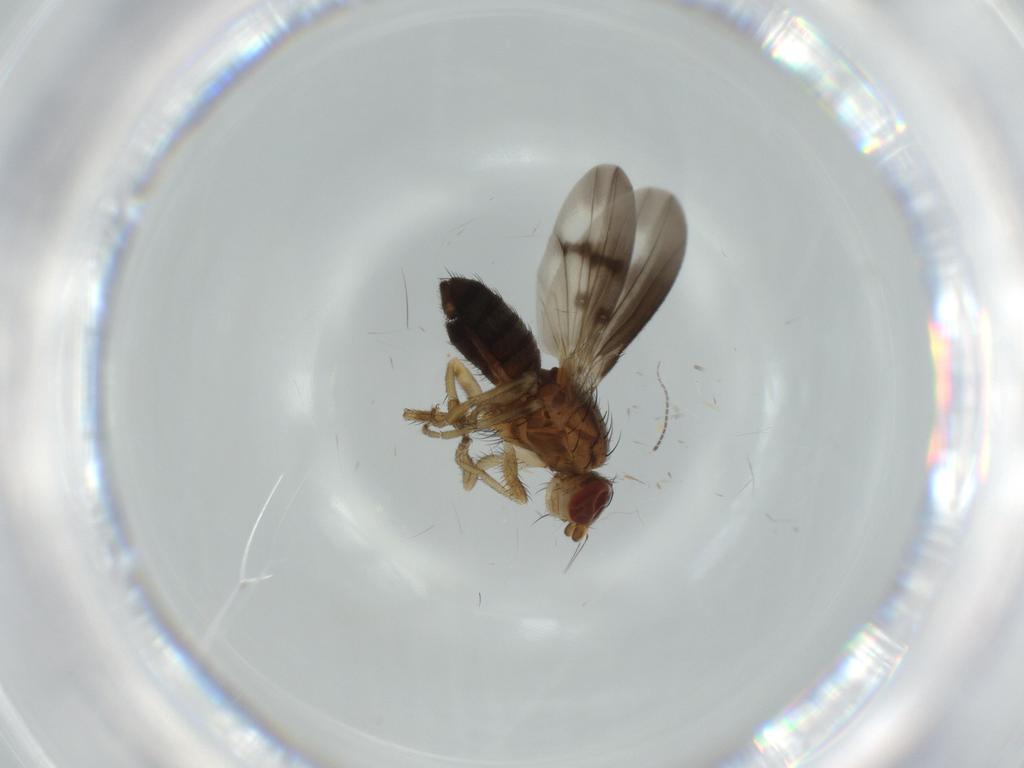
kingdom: Animalia
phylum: Arthropoda
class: Insecta
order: Diptera
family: Heleomyzidae
